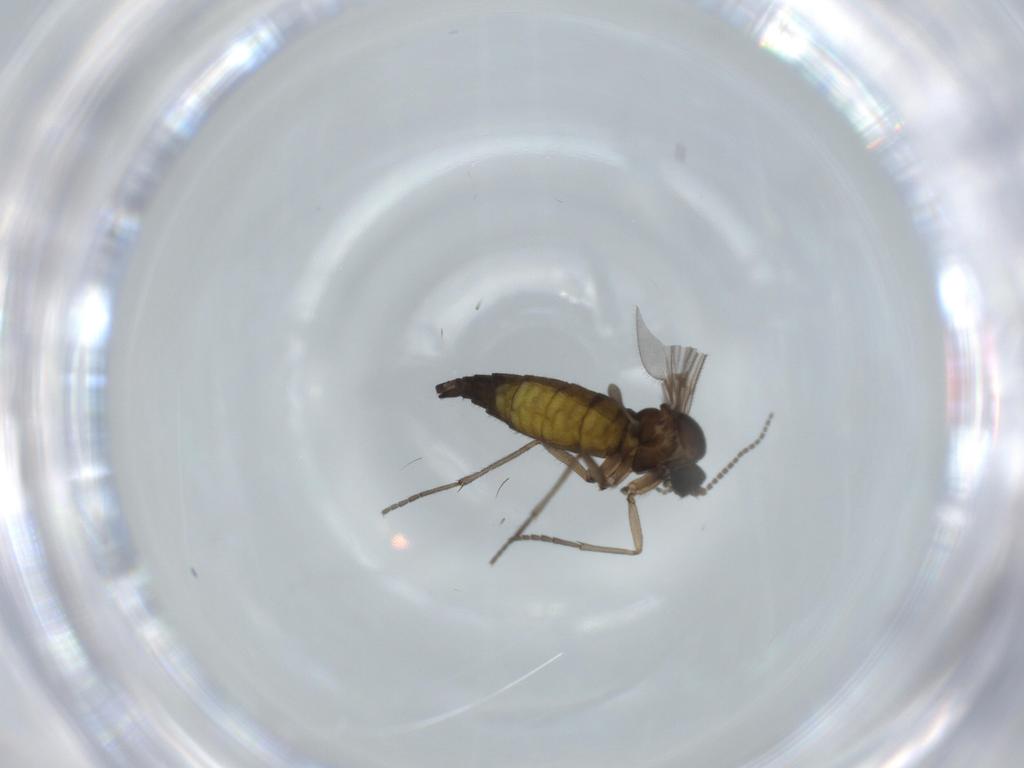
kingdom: Animalia
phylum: Arthropoda
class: Insecta
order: Diptera
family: Sciaridae
